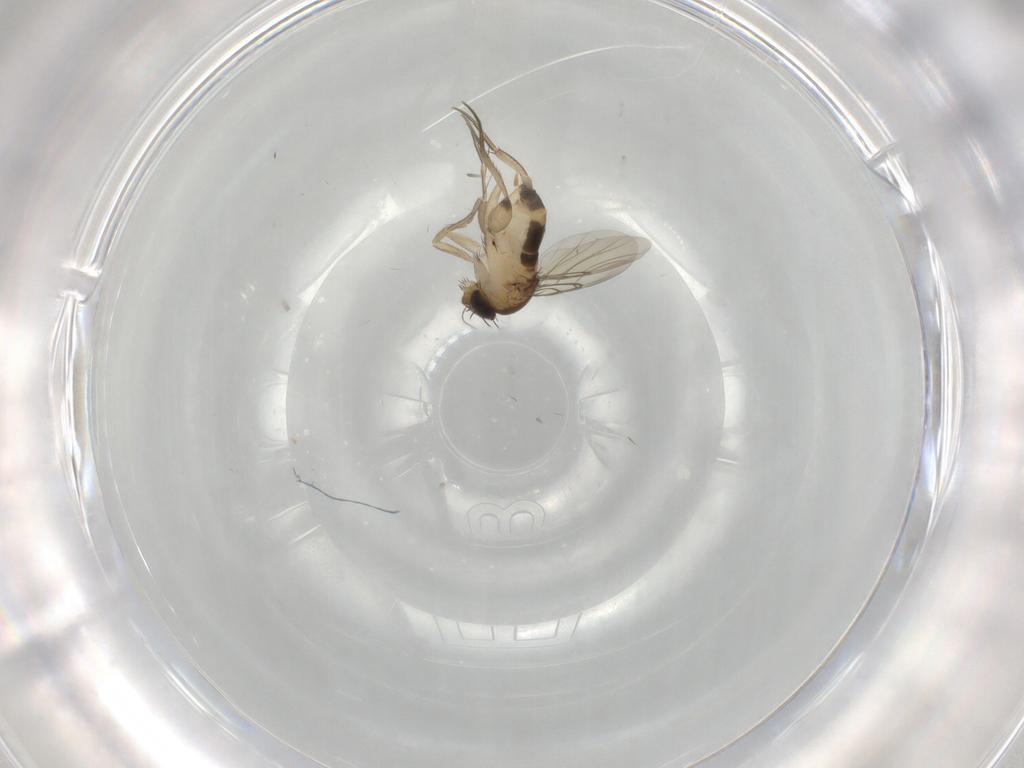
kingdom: Animalia
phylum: Arthropoda
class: Insecta
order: Diptera
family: Phoridae
